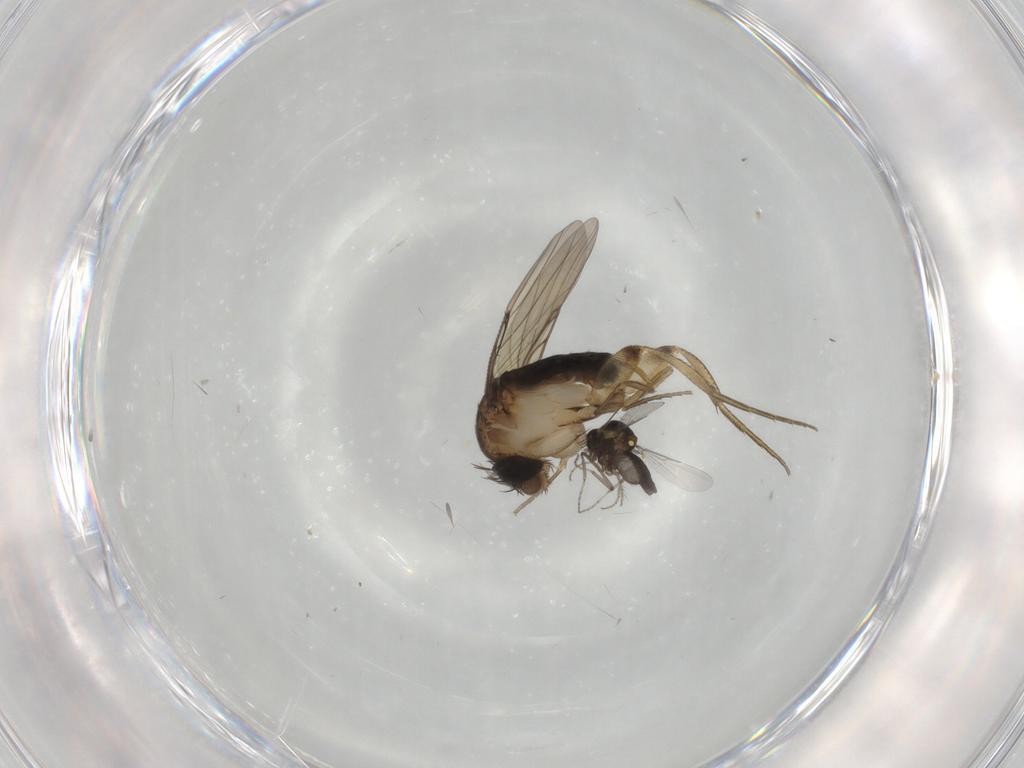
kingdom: Animalia
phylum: Arthropoda
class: Insecta
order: Diptera
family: Phoridae
